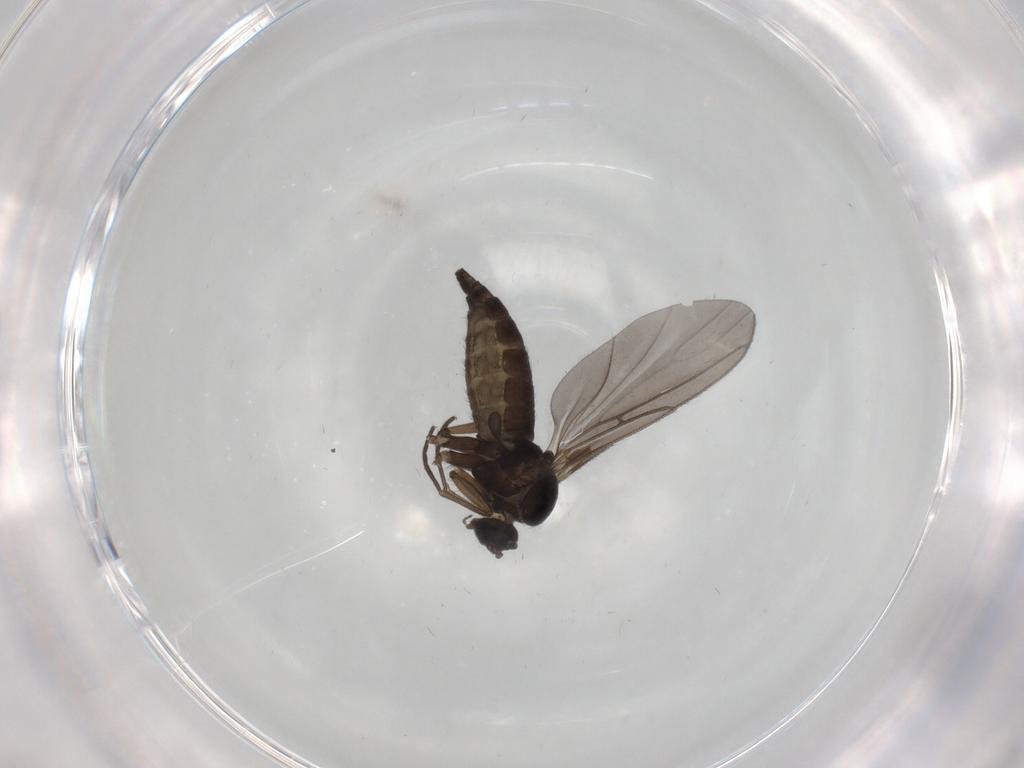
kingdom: Animalia
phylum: Arthropoda
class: Insecta
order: Diptera
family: Sciaridae
